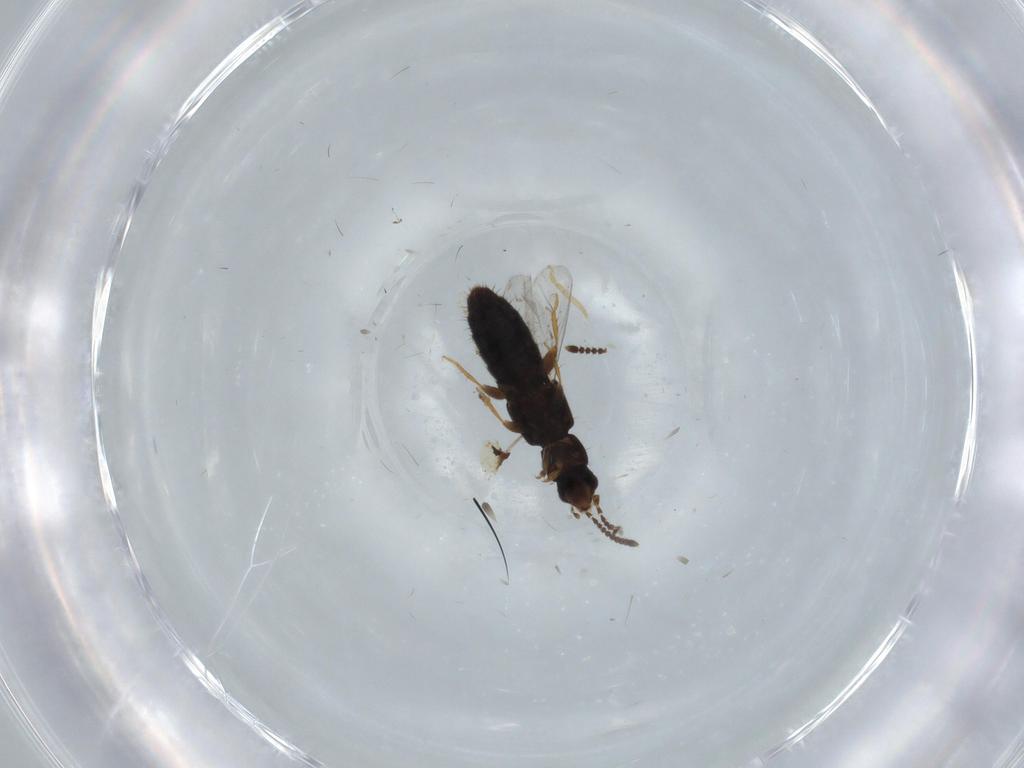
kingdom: Animalia
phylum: Arthropoda
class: Insecta
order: Coleoptera
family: Staphylinidae
